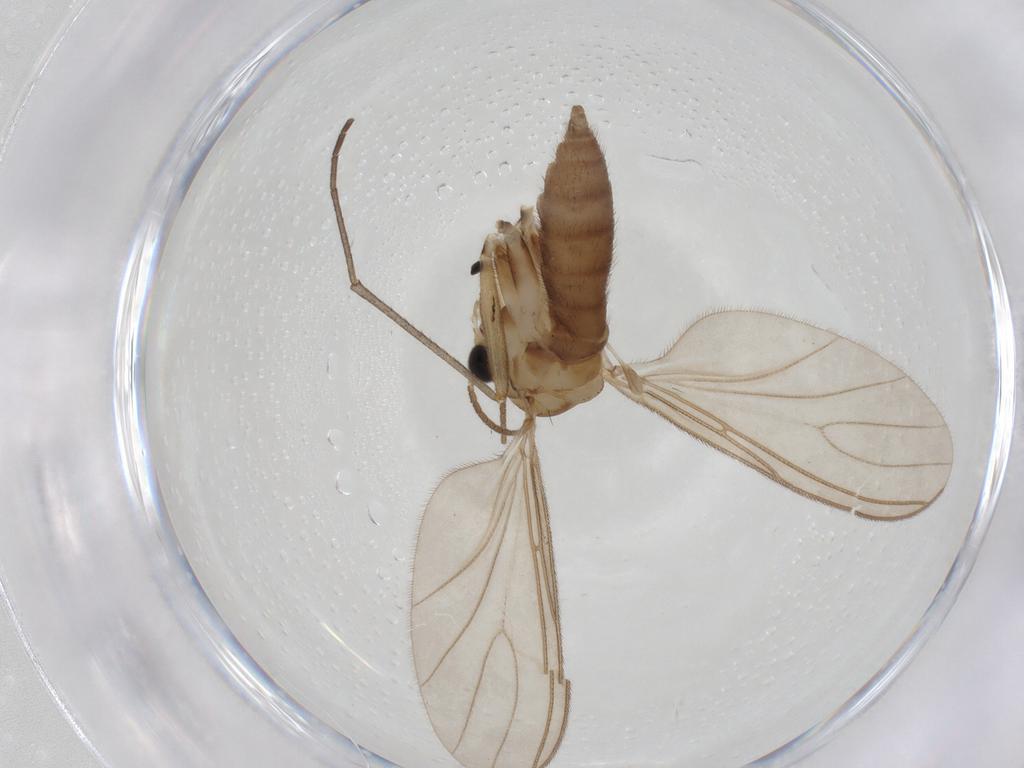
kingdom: Animalia
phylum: Arthropoda
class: Insecta
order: Diptera
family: Sciaridae
